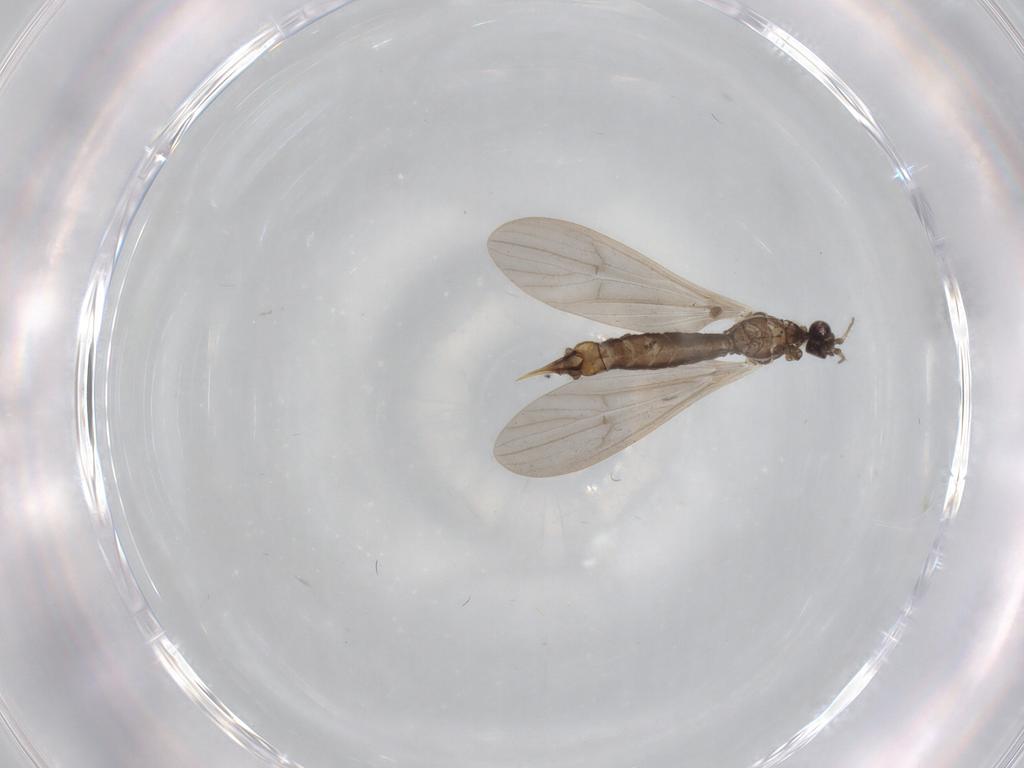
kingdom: Animalia
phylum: Arthropoda
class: Insecta
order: Diptera
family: Limoniidae
